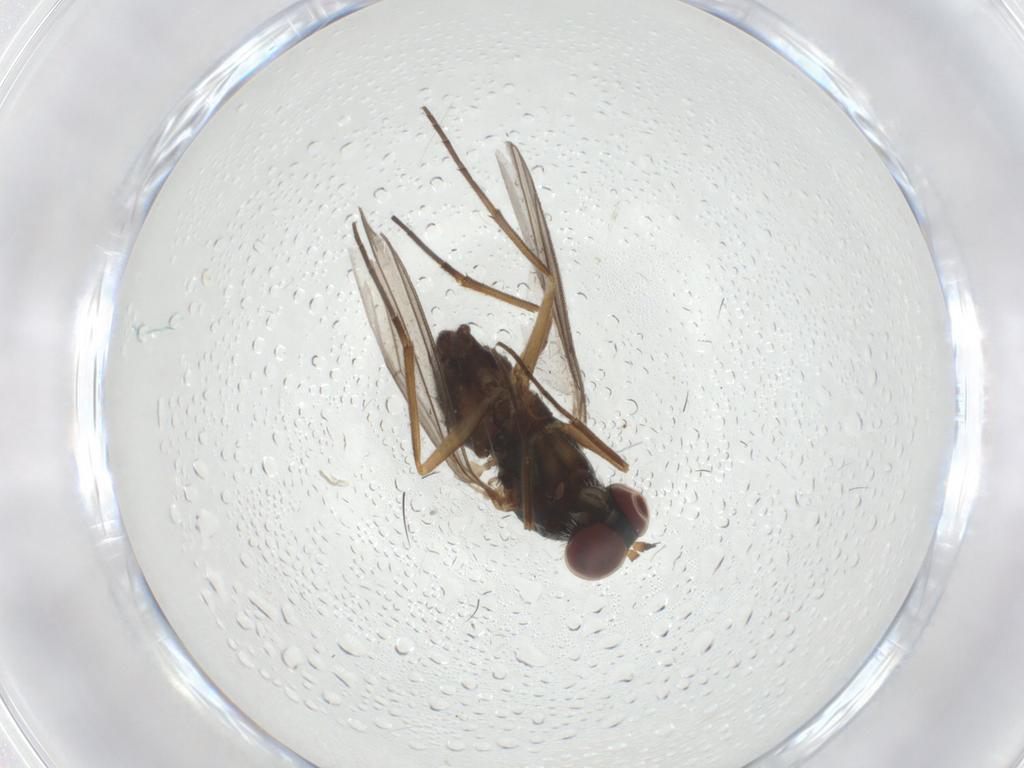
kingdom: Animalia
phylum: Arthropoda
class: Insecta
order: Diptera
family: Dolichopodidae
